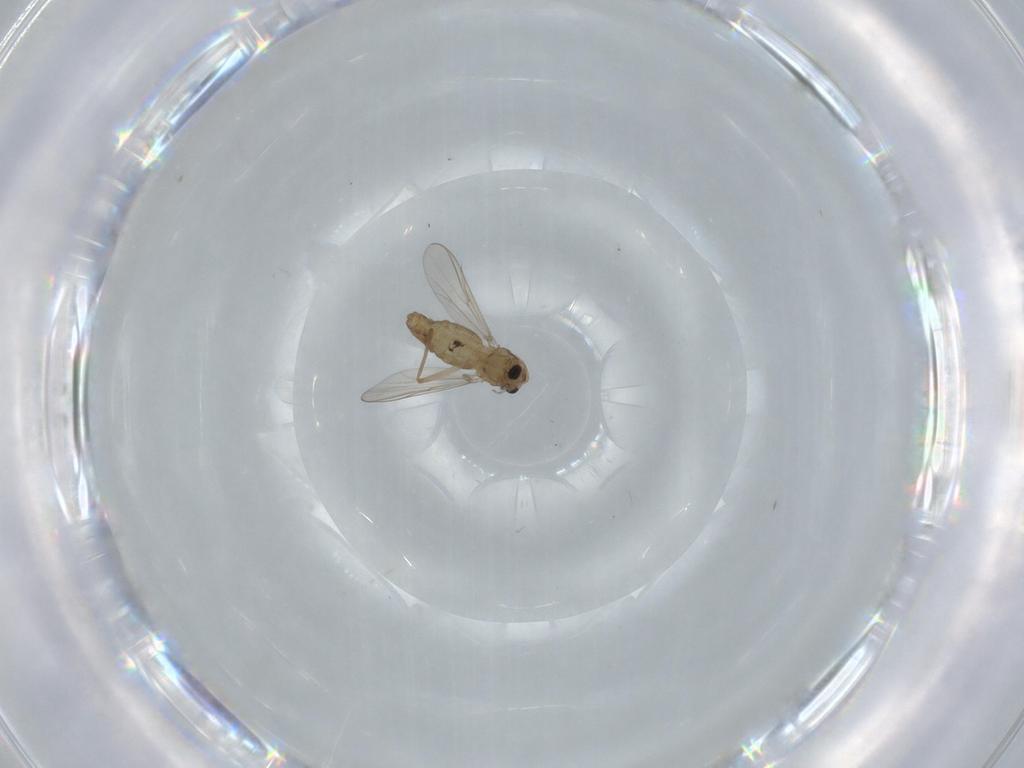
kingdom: Animalia
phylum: Arthropoda
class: Insecta
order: Diptera
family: Chironomidae
